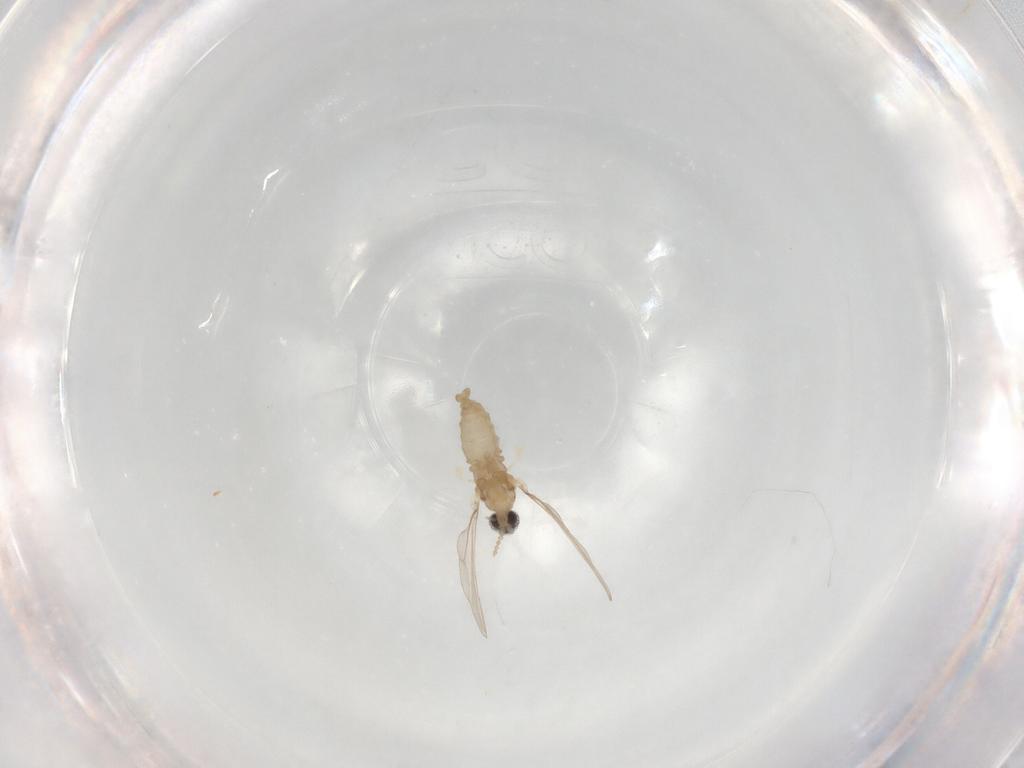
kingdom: Animalia
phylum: Arthropoda
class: Insecta
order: Diptera
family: Cecidomyiidae
